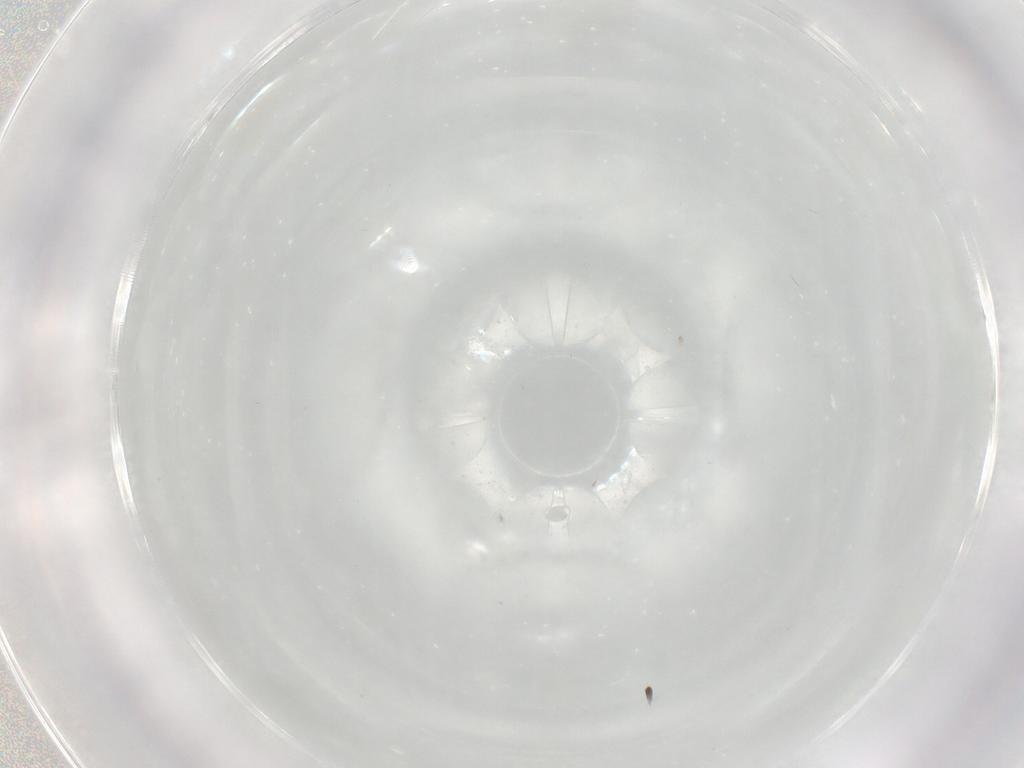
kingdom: Animalia
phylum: Arthropoda
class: Insecta
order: Hemiptera
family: Aleyrodidae
